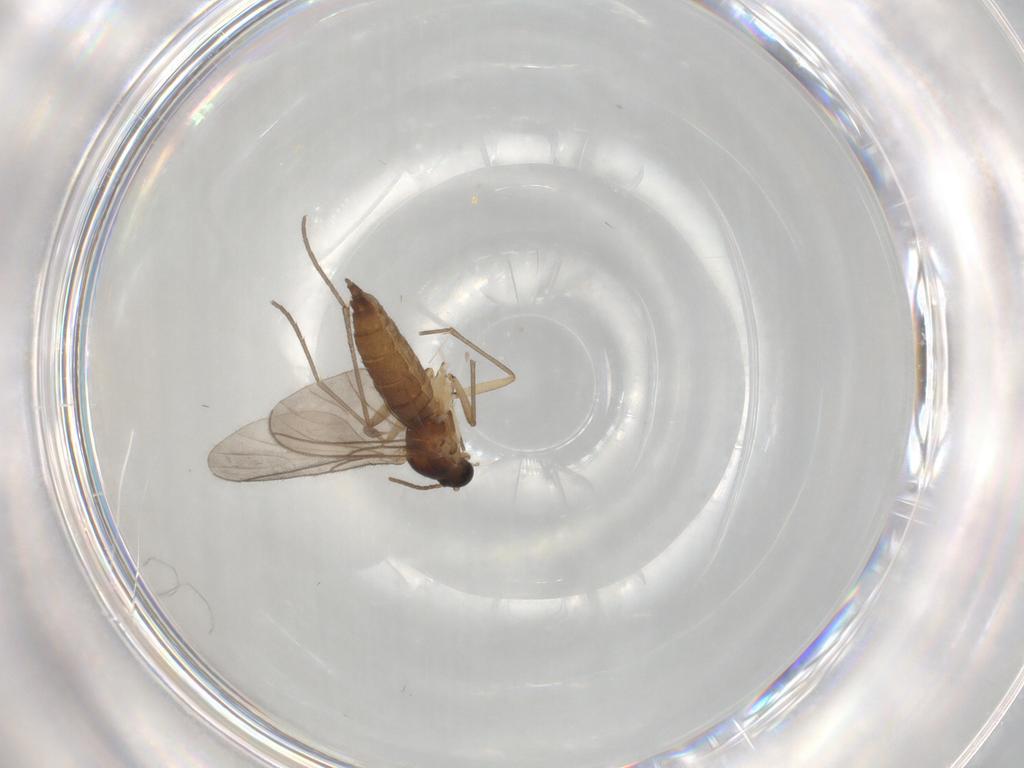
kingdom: Animalia
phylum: Arthropoda
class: Insecta
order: Diptera
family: Sciaridae
